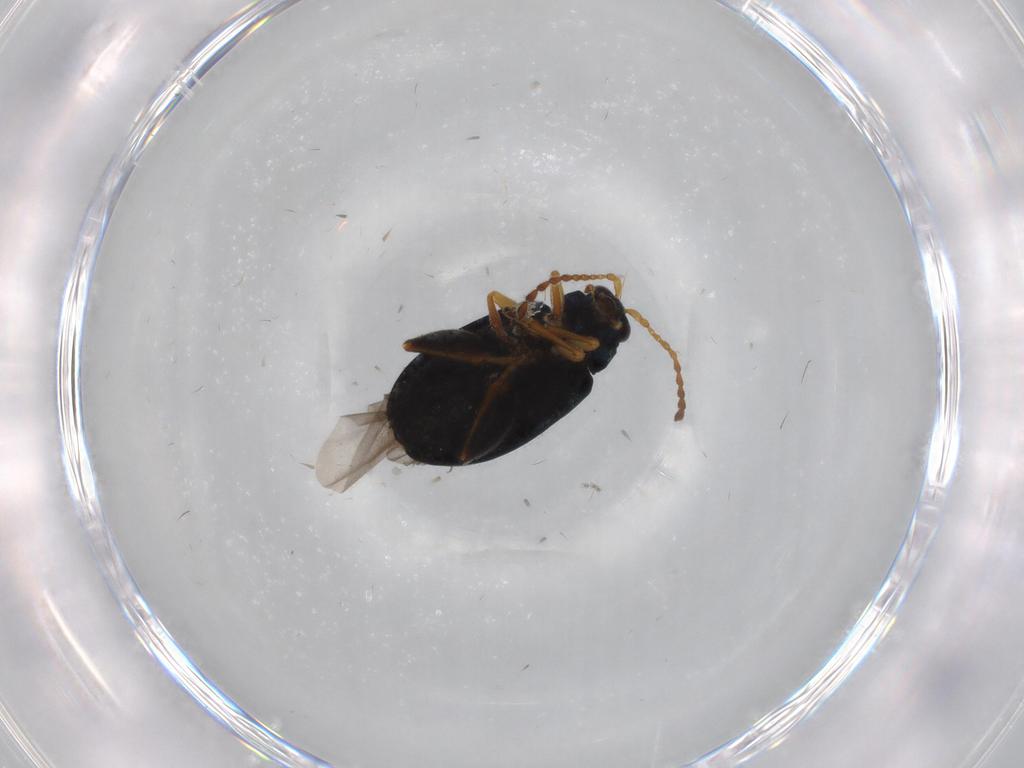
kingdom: Animalia
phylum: Arthropoda
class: Insecta
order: Coleoptera
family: Chrysomelidae
